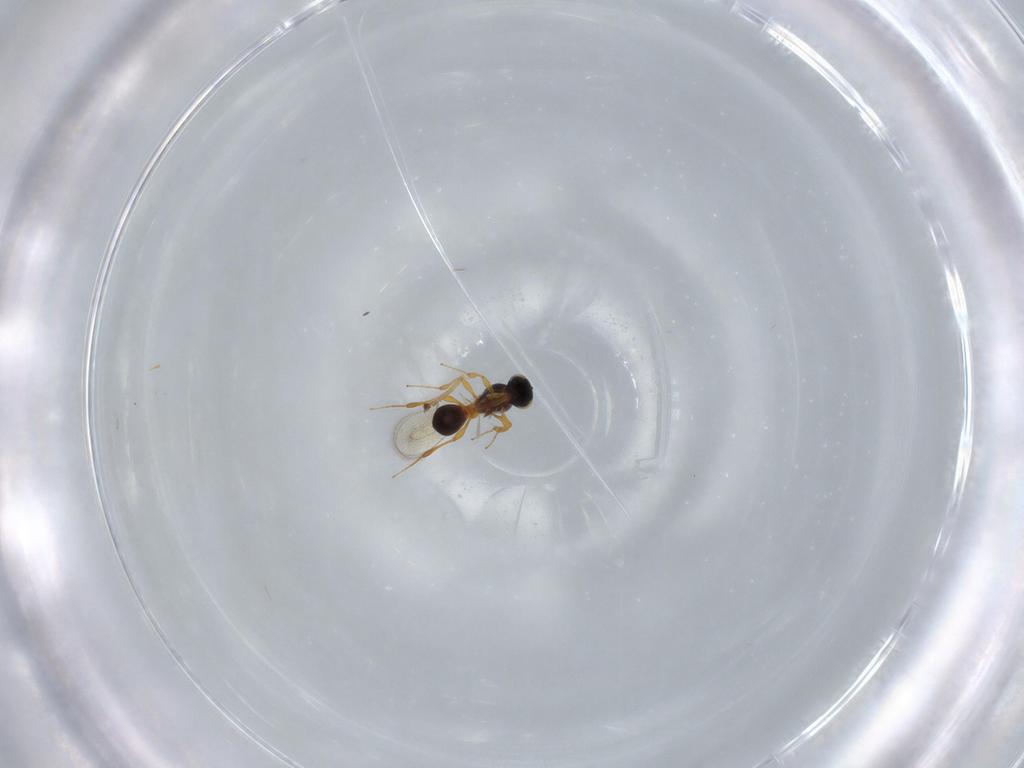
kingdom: Animalia
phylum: Arthropoda
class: Insecta
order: Hymenoptera
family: Platygastridae
